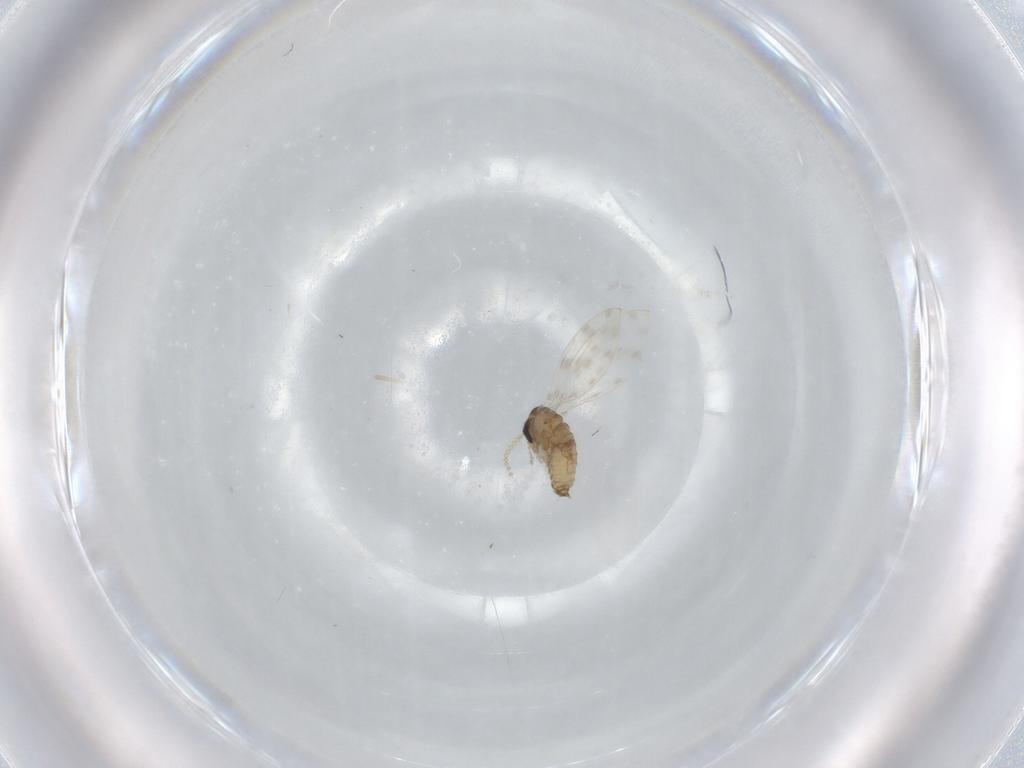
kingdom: Animalia
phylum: Arthropoda
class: Insecta
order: Diptera
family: Psychodidae
